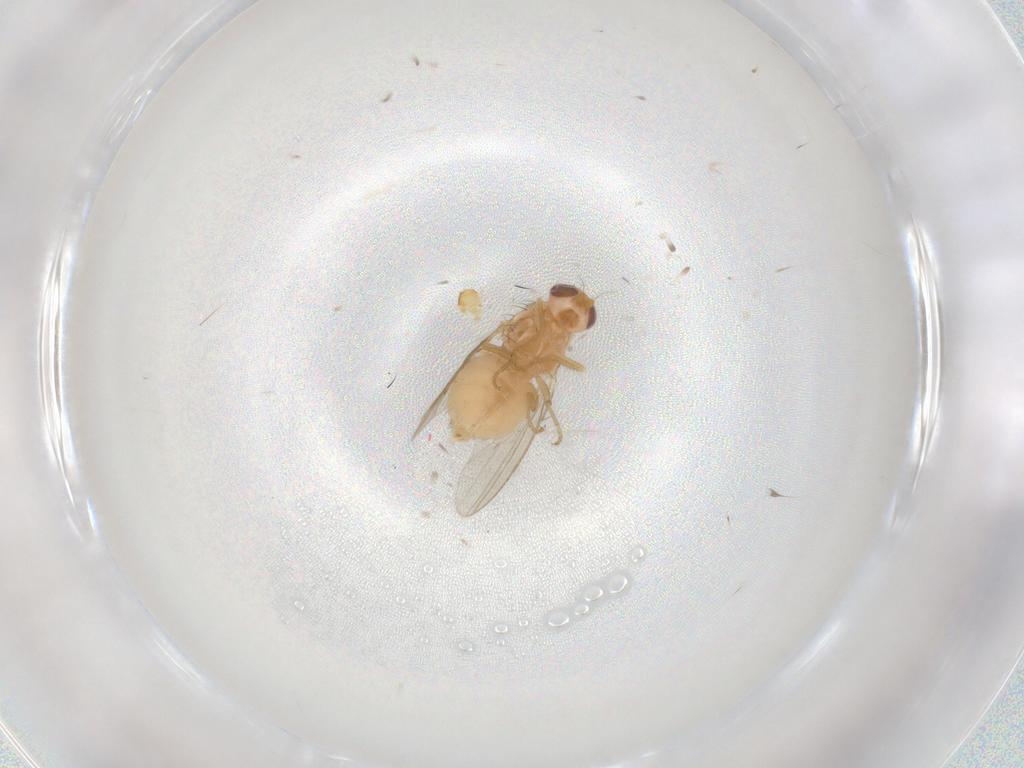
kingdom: Animalia
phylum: Arthropoda
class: Insecta
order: Diptera
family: Chyromyidae
